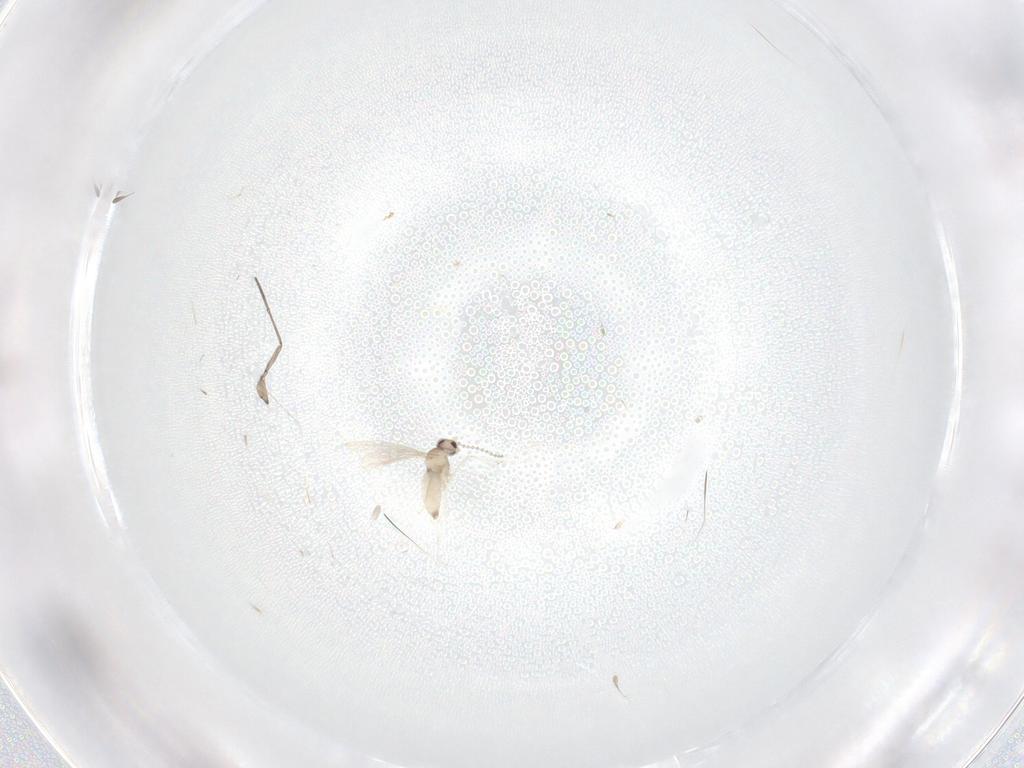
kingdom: Animalia
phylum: Arthropoda
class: Insecta
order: Diptera
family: Cecidomyiidae
